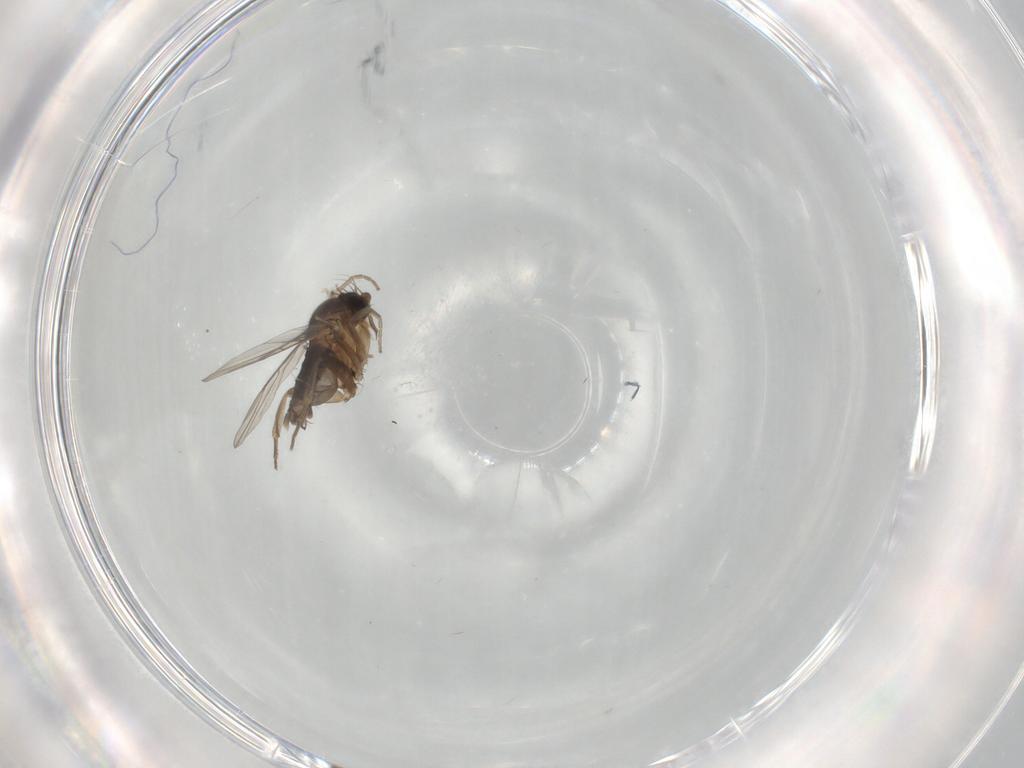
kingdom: Animalia
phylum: Arthropoda
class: Insecta
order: Diptera
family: Phoridae
